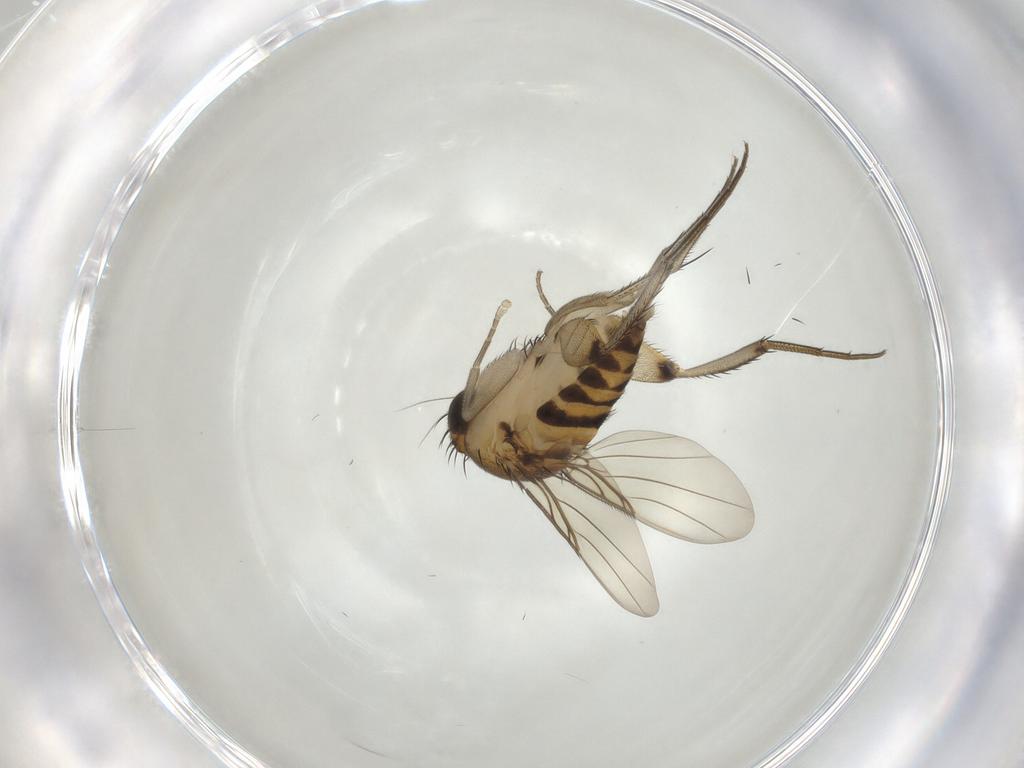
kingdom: Animalia
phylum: Arthropoda
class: Insecta
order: Diptera
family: Phoridae
